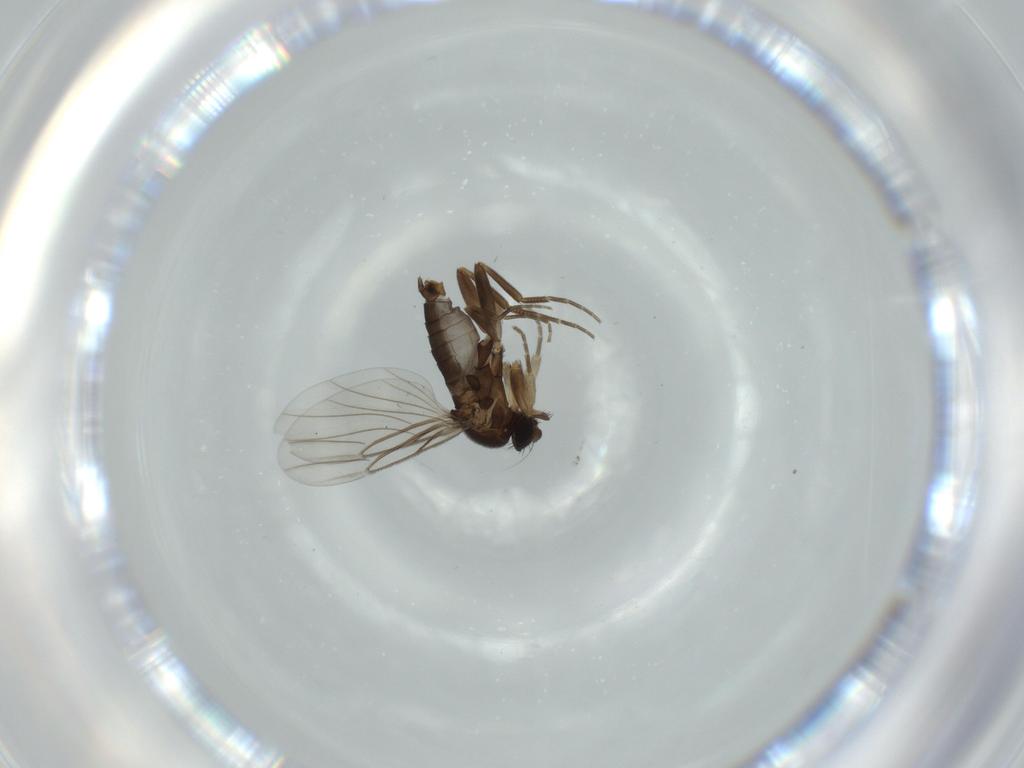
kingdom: Animalia
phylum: Arthropoda
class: Insecta
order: Diptera
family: Phoridae
